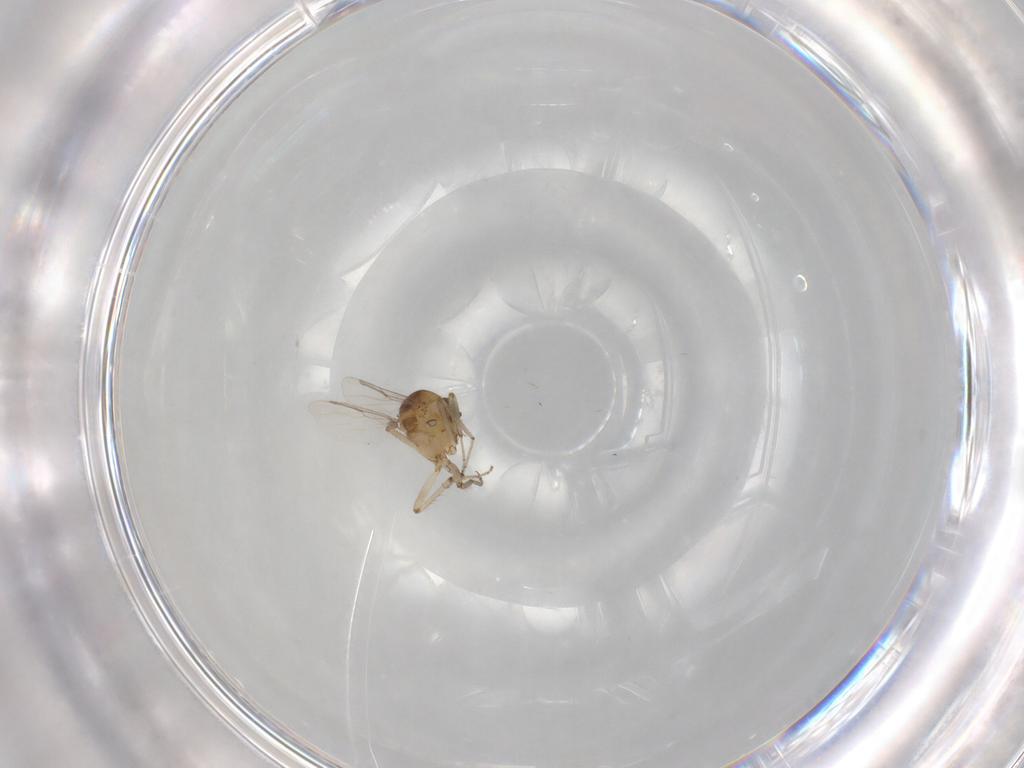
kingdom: Animalia
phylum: Arthropoda
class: Insecta
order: Diptera
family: Ceratopogonidae
